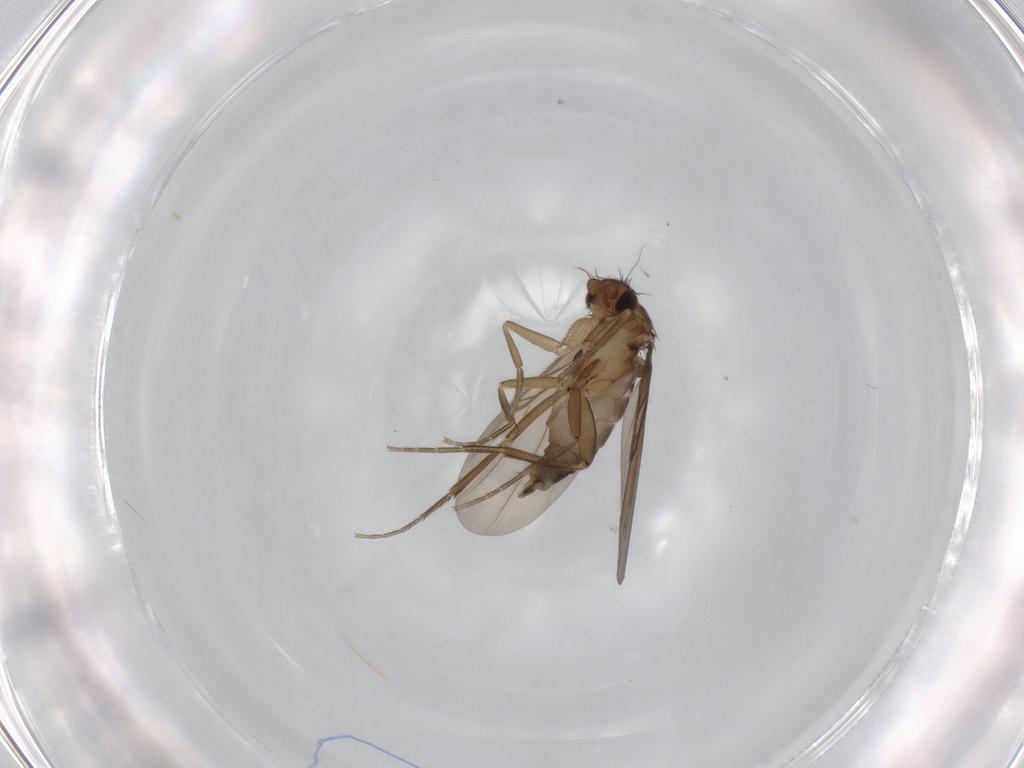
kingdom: Animalia
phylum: Arthropoda
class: Insecta
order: Diptera
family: Phoridae
